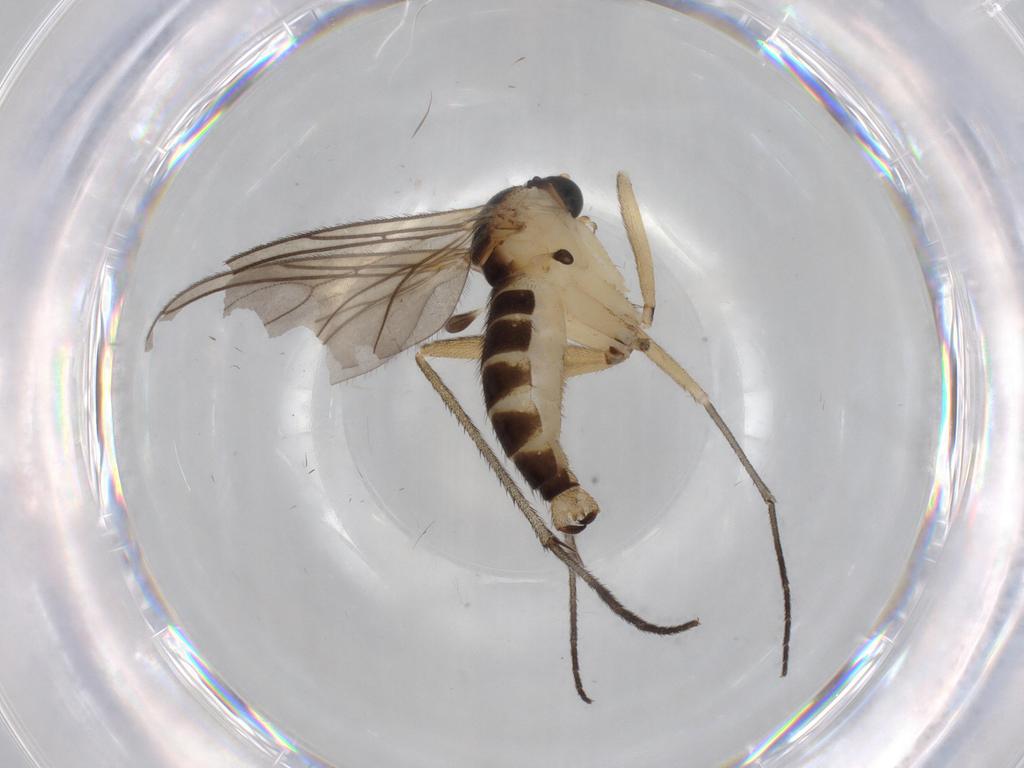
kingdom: Animalia
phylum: Arthropoda
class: Insecta
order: Diptera
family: Sciaridae
